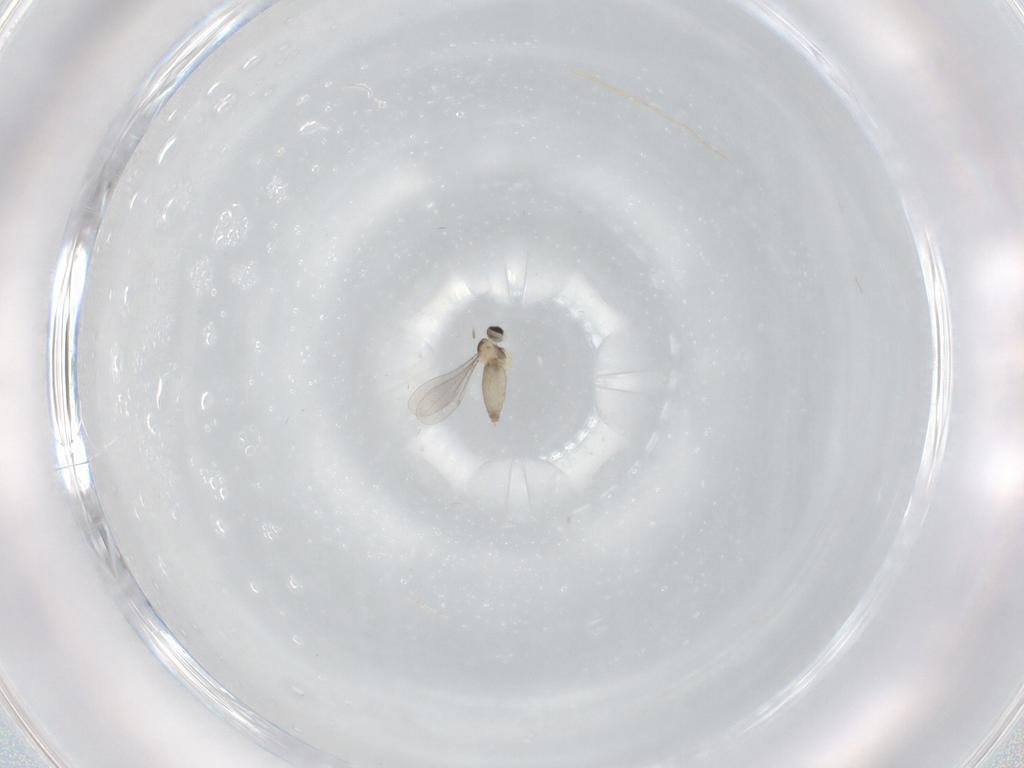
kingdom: Animalia
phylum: Arthropoda
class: Insecta
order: Diptera
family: Cecidomyiidae
